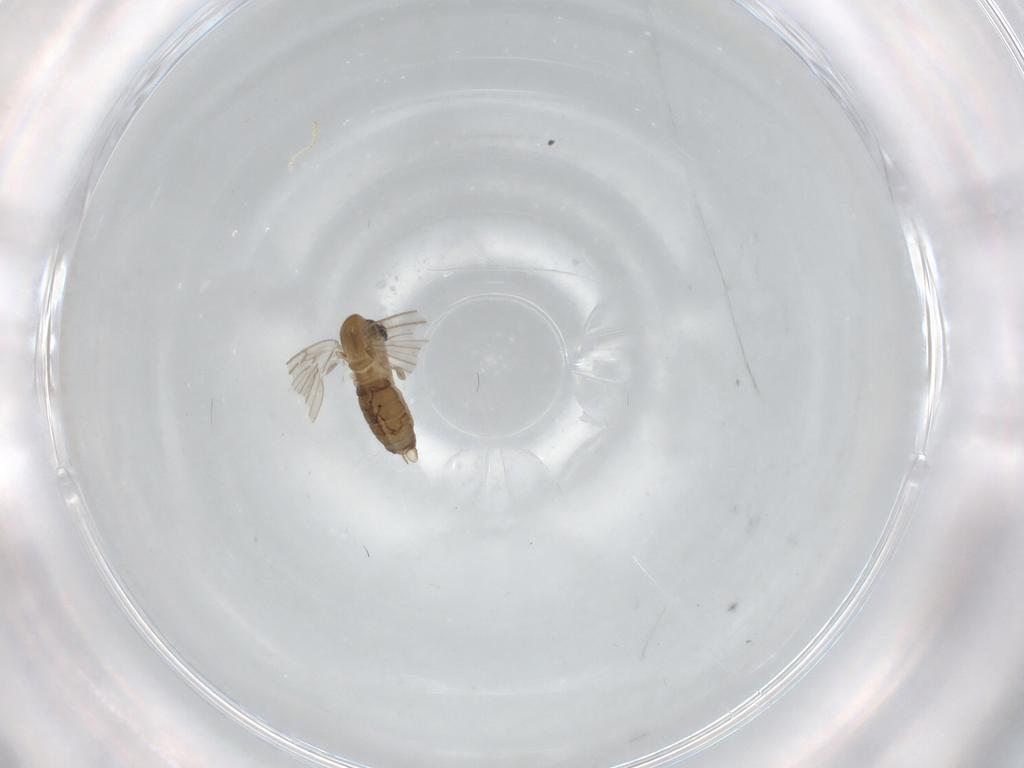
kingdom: Animalia
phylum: Arthropoda
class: Insecta
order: Diptera
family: Psychodidae
